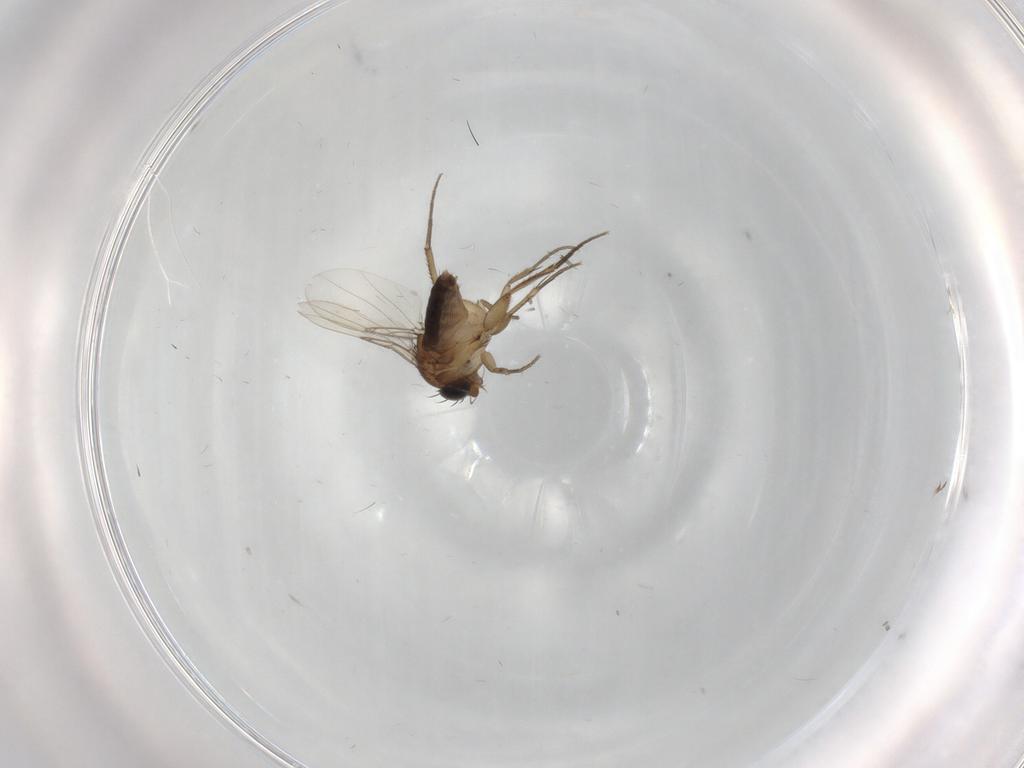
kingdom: Animalia
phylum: Arthropoda
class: Insecta
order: Diptera
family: Phoridae
